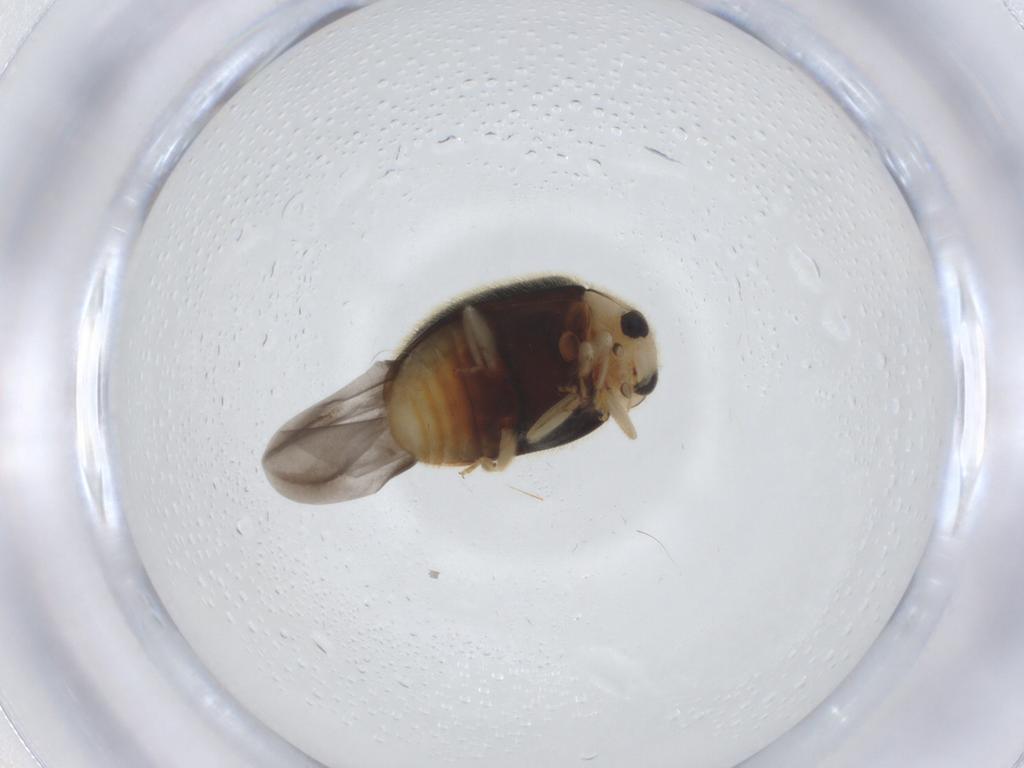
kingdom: Animalia
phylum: Arthropoda
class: Insecta
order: Coleoptera
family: Coccinellidae
